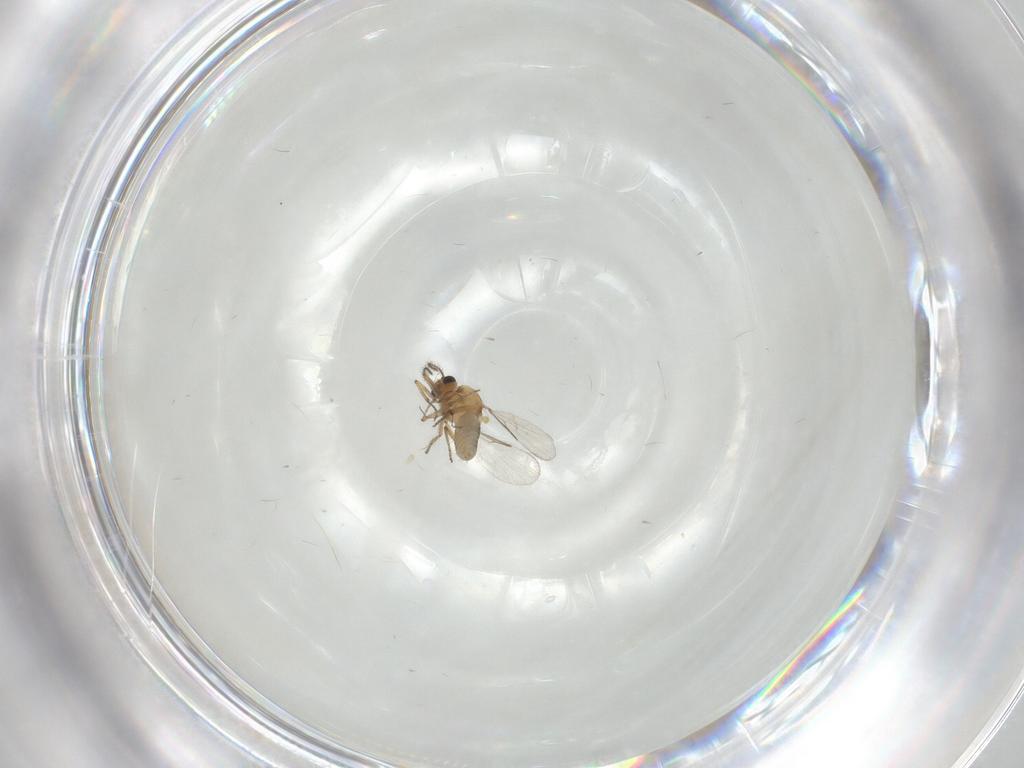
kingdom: Animalia
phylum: Arthropoda
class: Insecta
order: Diptera
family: Ceratopogonidae
